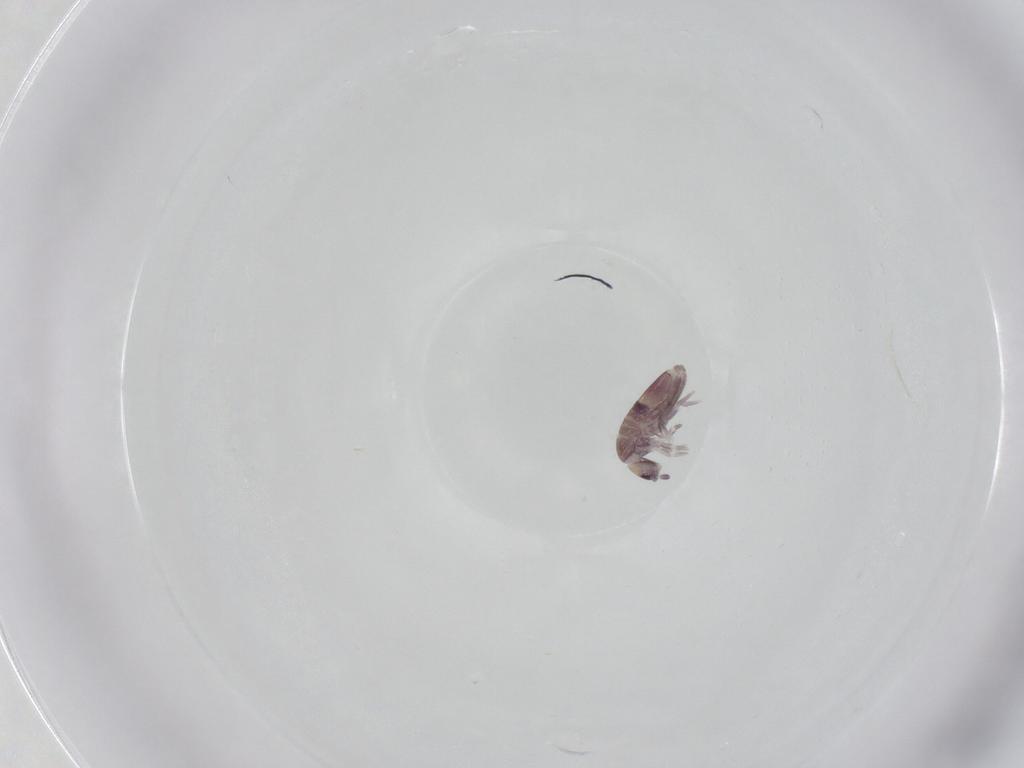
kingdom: Animalia
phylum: Arthropoda
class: Collembola
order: Entomobryomorpha
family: Entomobryidae
